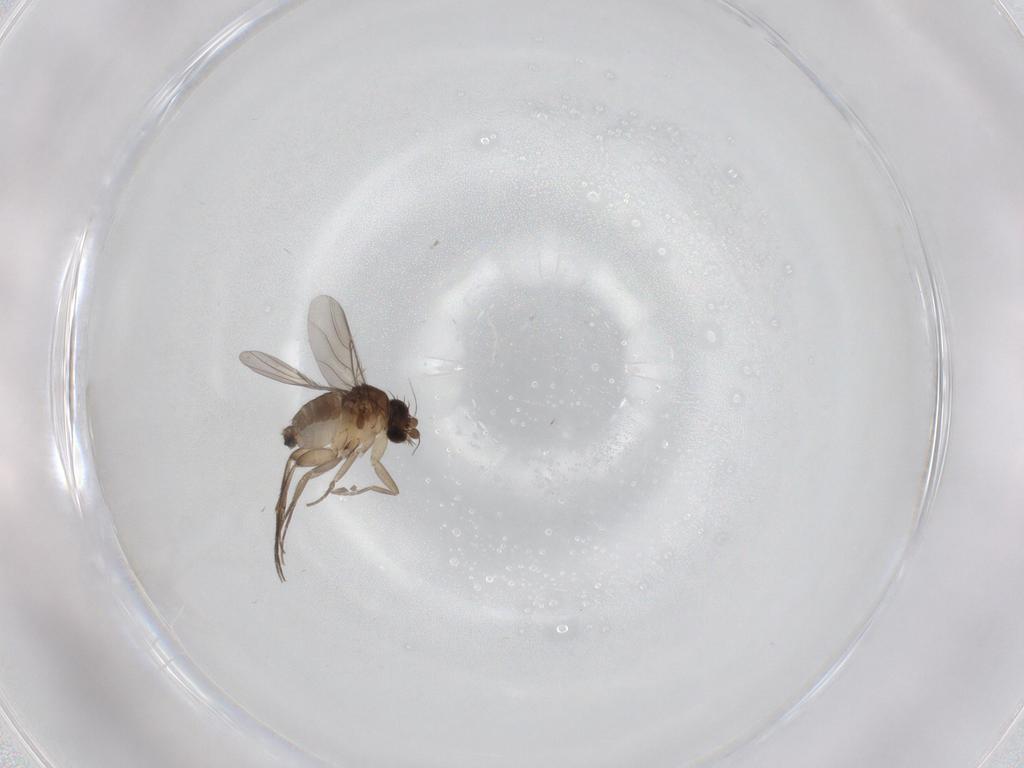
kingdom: Animalia
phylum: Arthropoda
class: Insecta
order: Diptera
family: Phoridae
